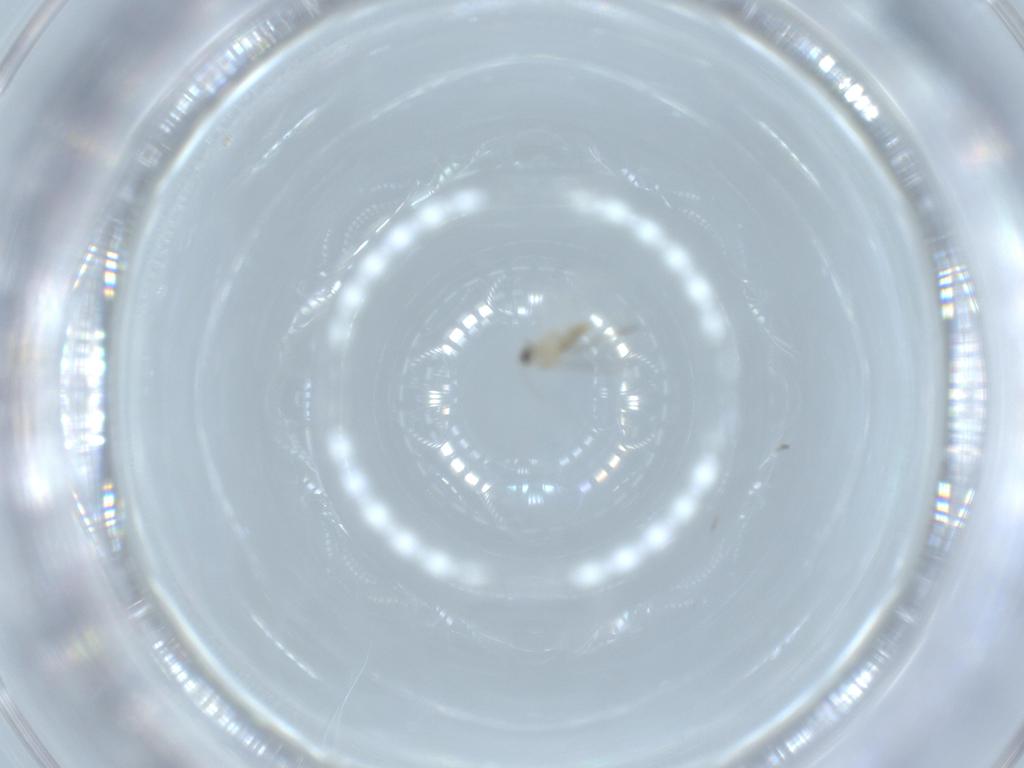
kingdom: Animalia
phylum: Arthropoda
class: Insecta
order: Diptera
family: Cecidomyiidae
